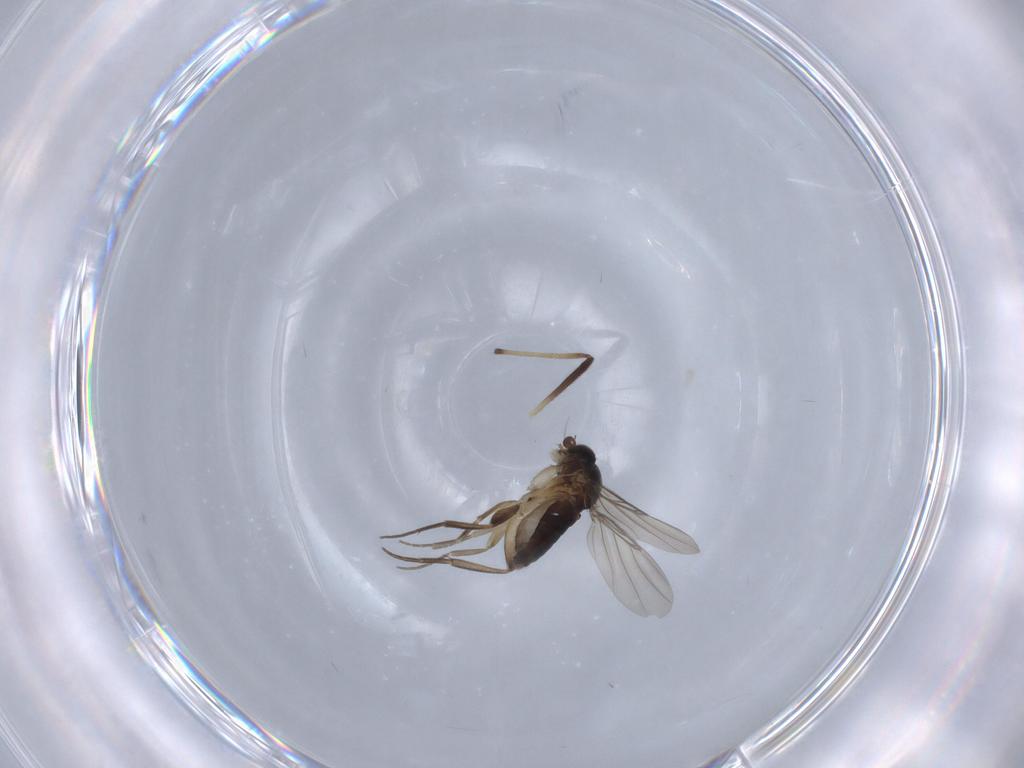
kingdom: Animalia
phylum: Arthropoda
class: Insecta
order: Diptera
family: Phoridae
